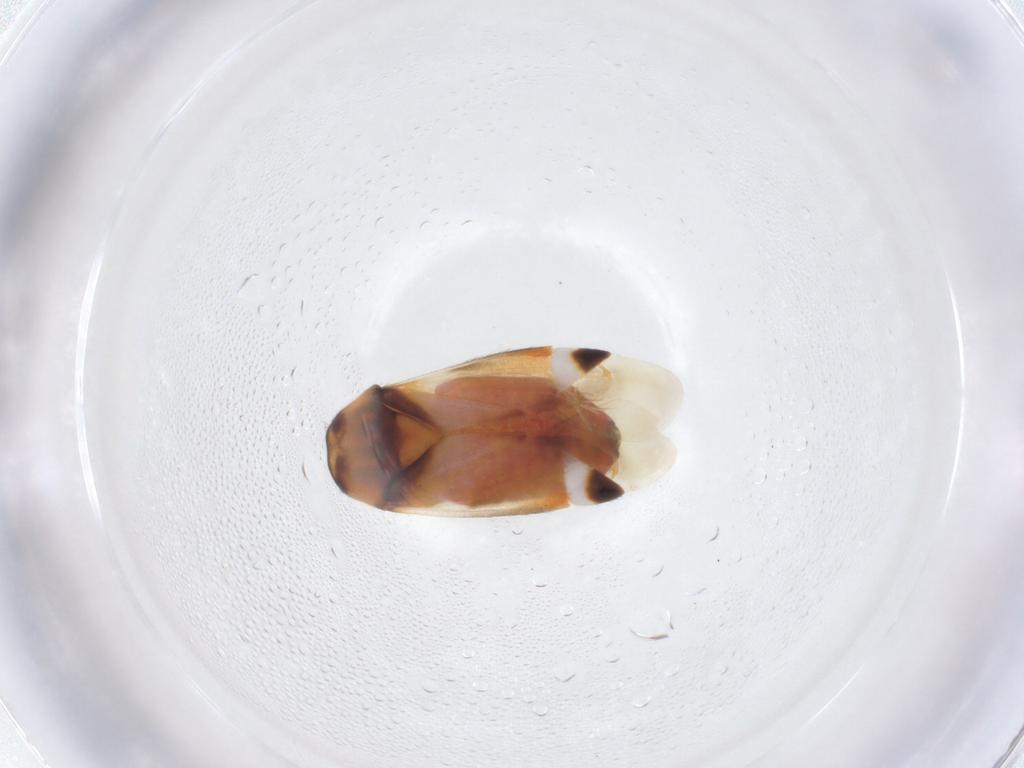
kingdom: Animalia
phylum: Arthropoda
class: Insecta
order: Hemiptera
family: Miridae
